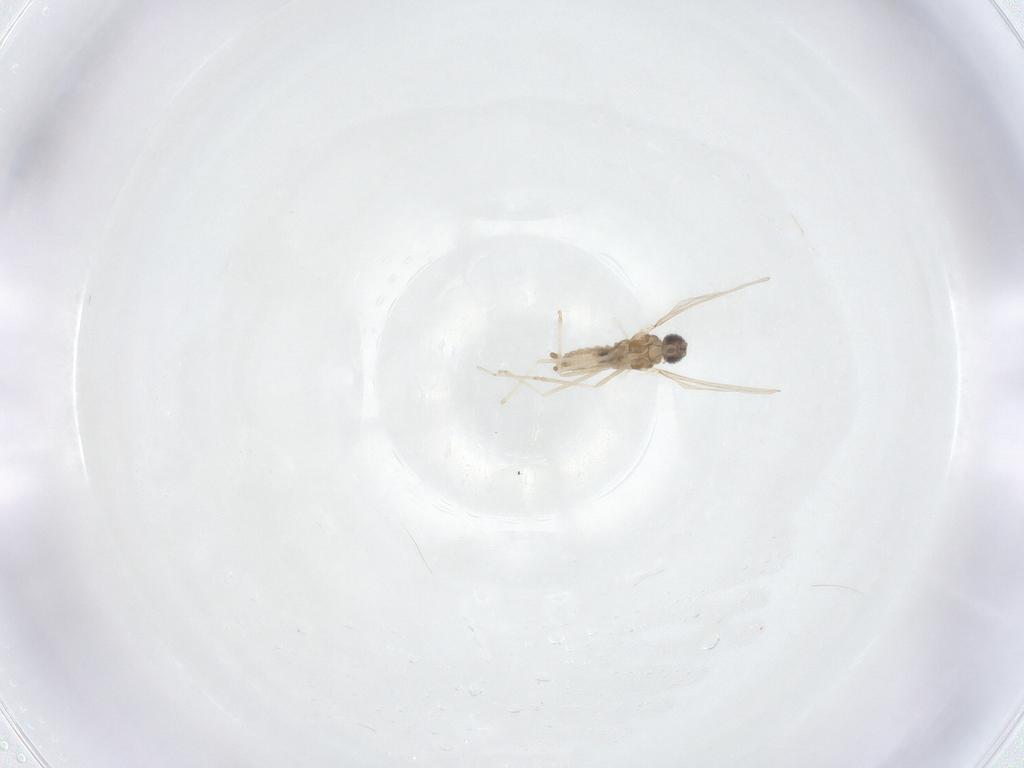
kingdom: Animalia
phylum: Arthropoda
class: Insecta
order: Diptera
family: Cecidomyiidae
